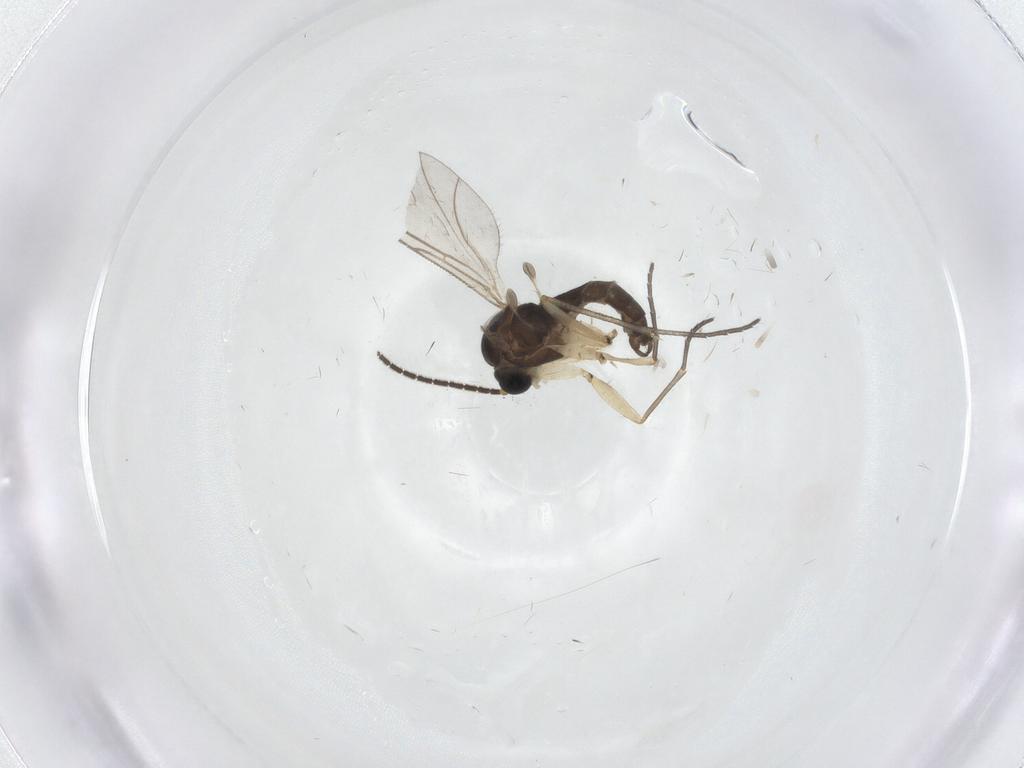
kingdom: Animalia
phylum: Arthropoda
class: Insecta
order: Diptera
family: Sciaridae
